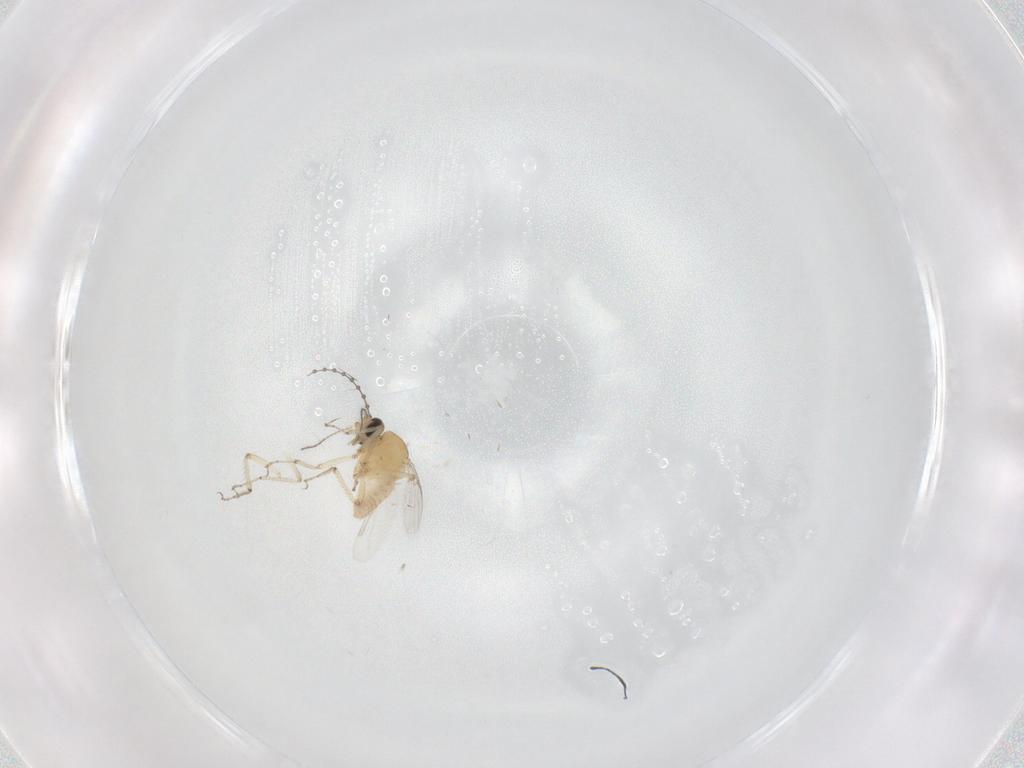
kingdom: Animalia
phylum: Arthropoda
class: Insecta
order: Diptera
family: Ceratopogonidae
